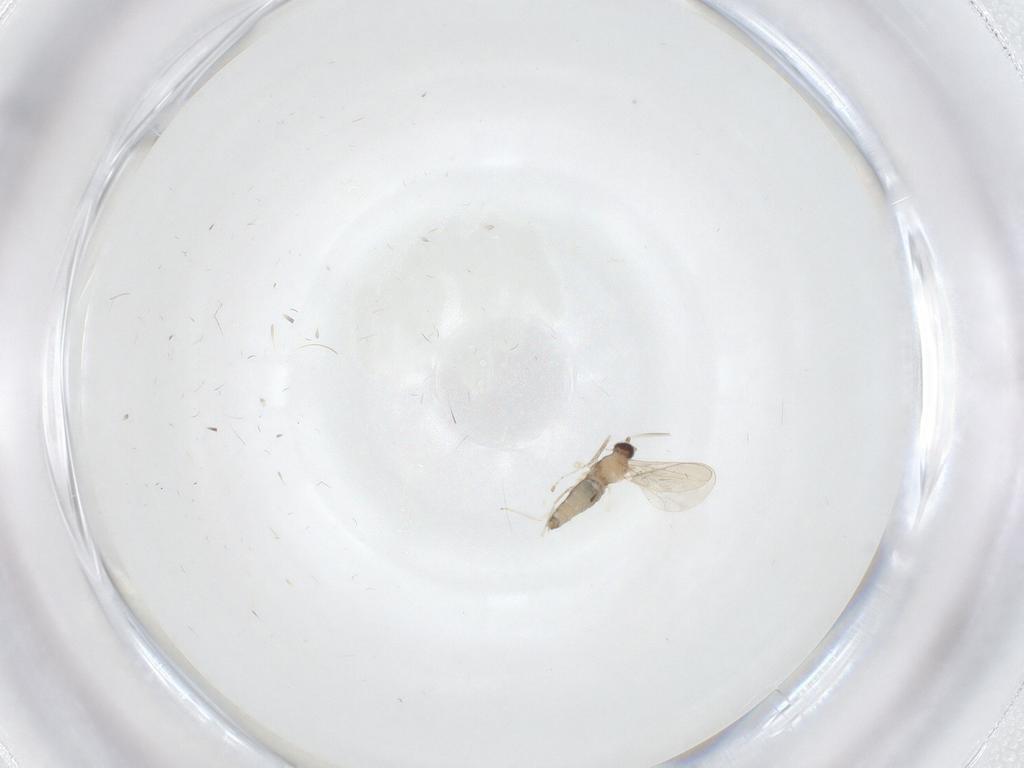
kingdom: Animalia
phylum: Arthropoda
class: Insecta
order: Diptera
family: Cecidomyiidae
